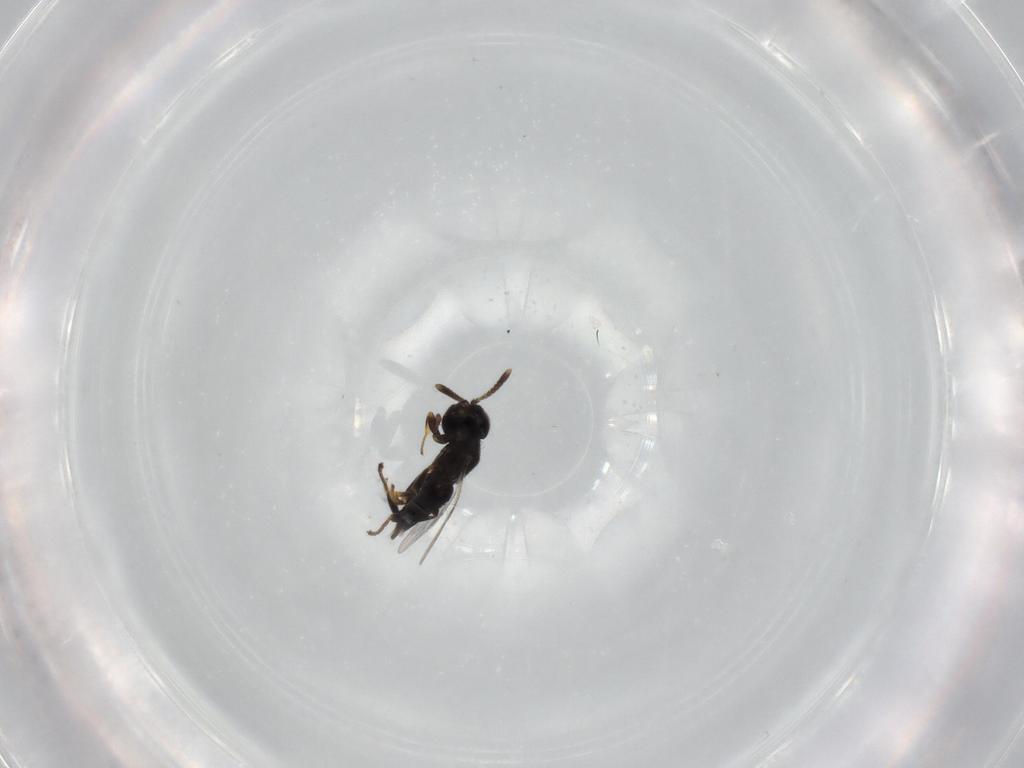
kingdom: Animalia
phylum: Arthropoda
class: Insecta
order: Hymenoptera
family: Encyrtidae
